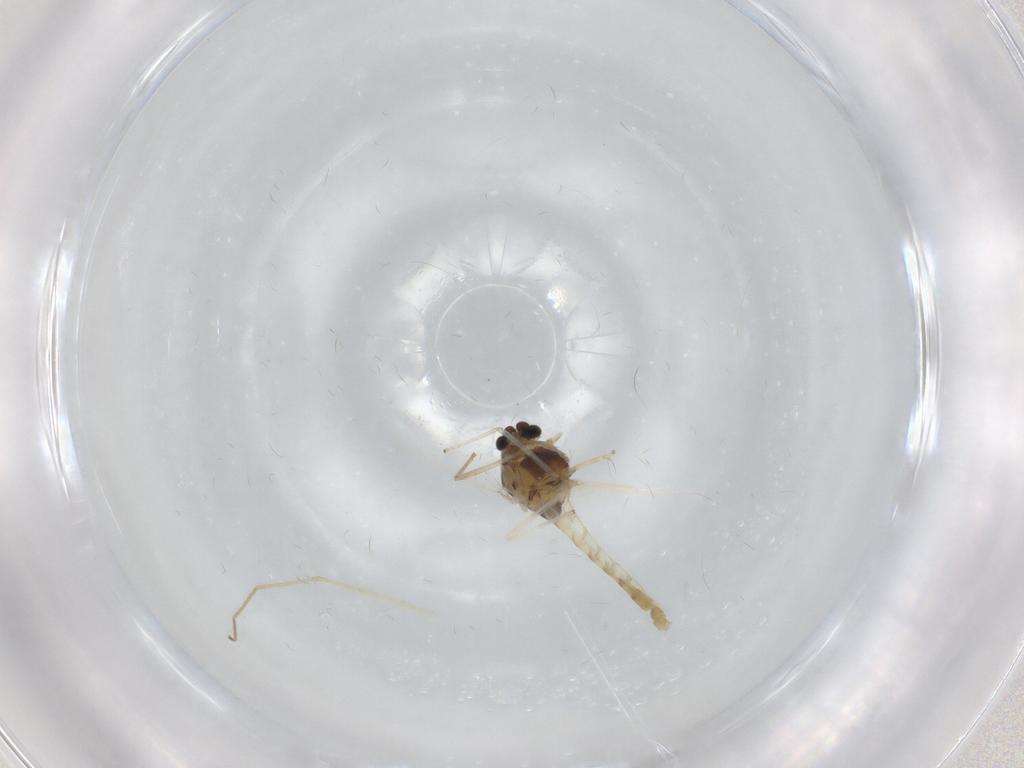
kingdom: Animalia
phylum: Arthropoda
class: Insecta
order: Diptera
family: Chironomidae
